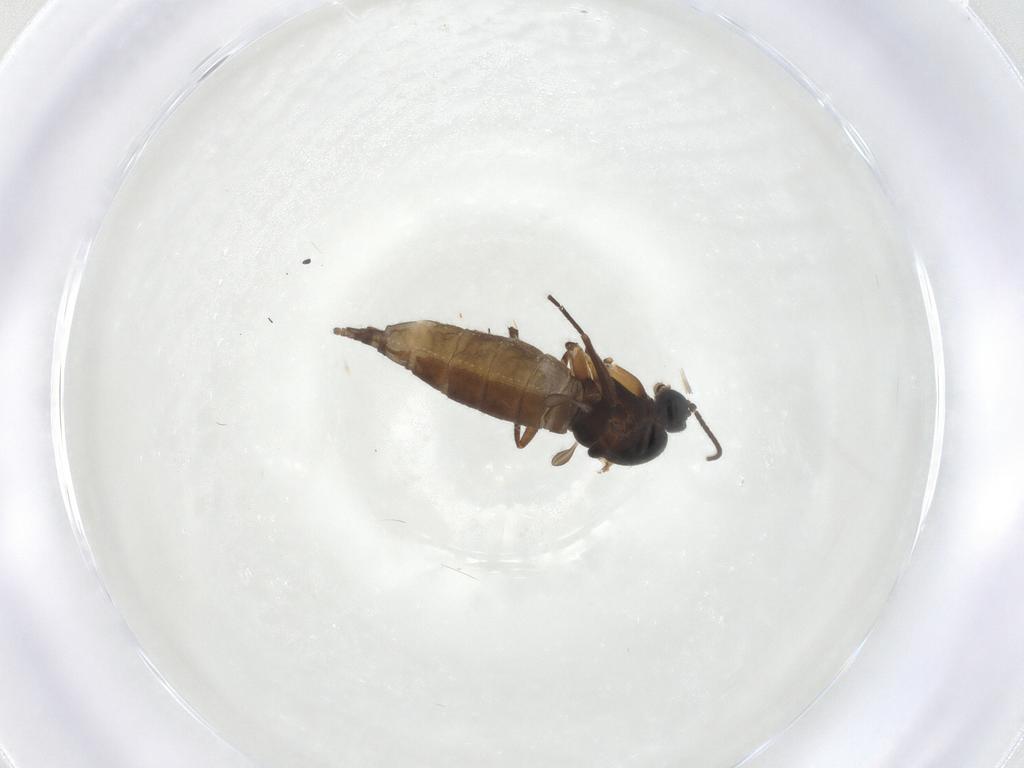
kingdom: Animalia
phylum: Arthropoda
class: Insecta
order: Diptera
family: Sciaridae
